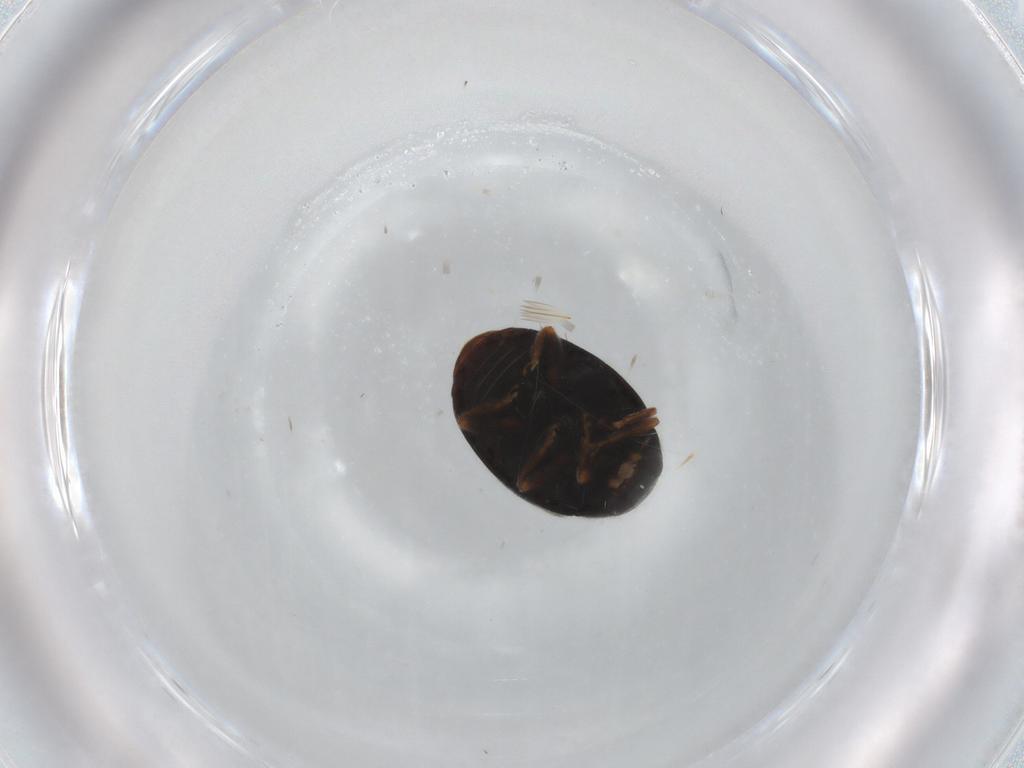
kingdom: Animalia
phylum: Arthropoda
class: Insecta
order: Coleoptera
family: Coccinellidae
